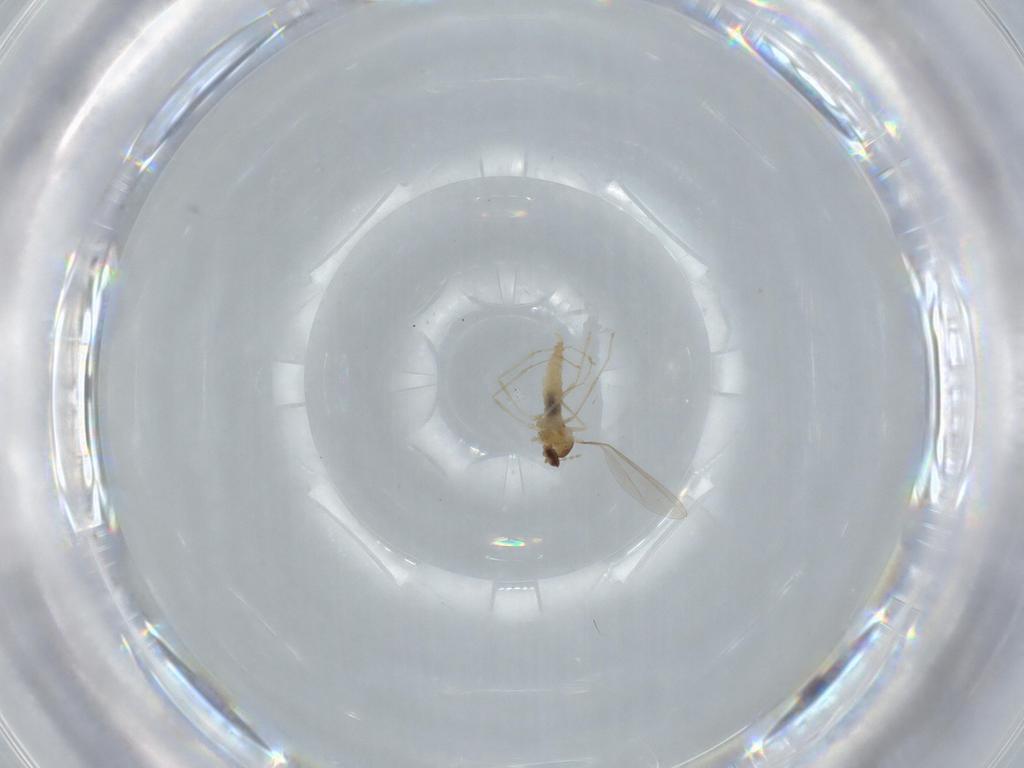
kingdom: Animalia
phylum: Arthropoda
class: Insecta
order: Diptera
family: Cecidomyiidae
